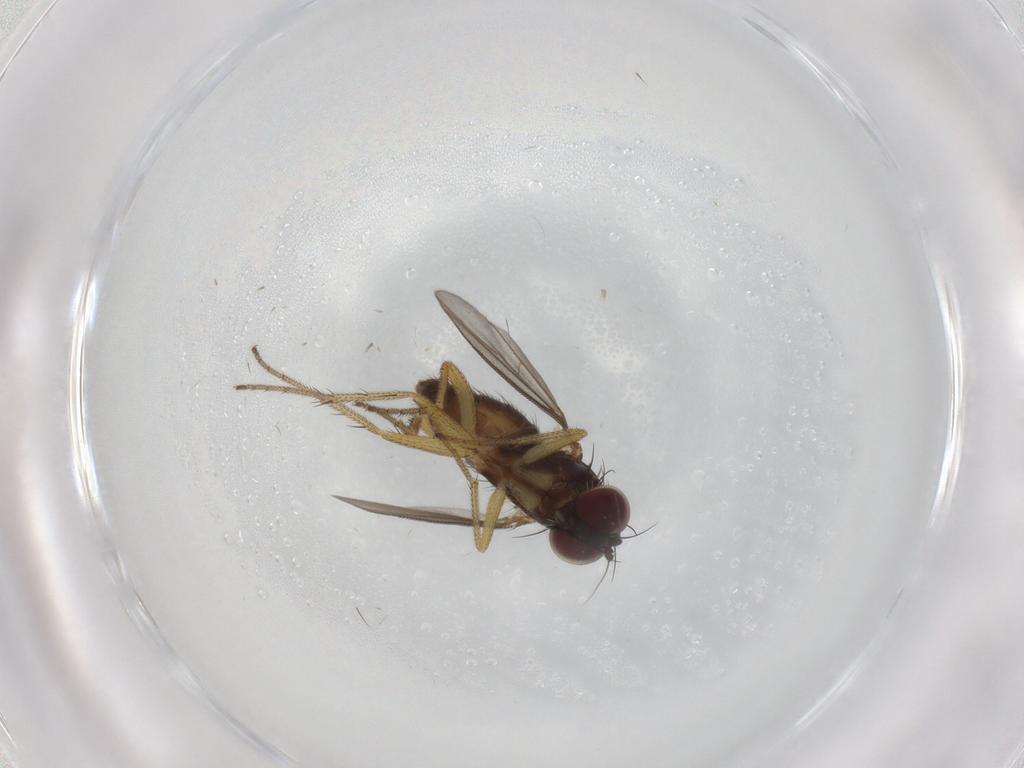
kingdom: Animalia
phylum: Arthropoda
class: Insecta
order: Diptera
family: Dolichopodidae
